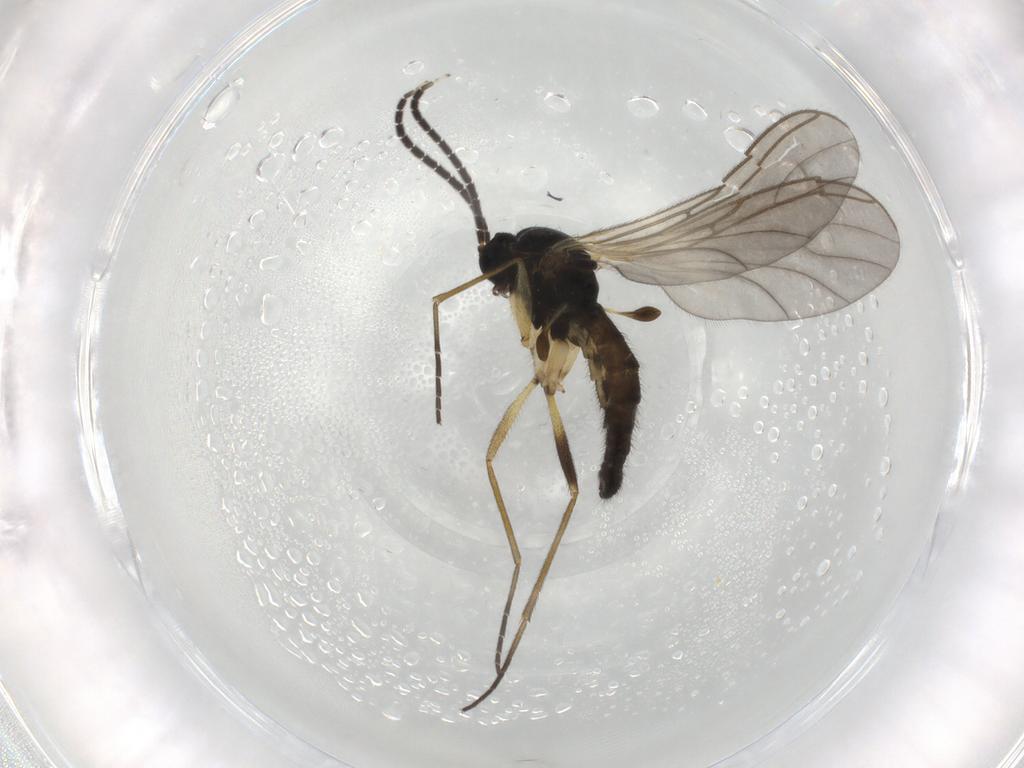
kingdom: Animalia
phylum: Arthropoda
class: Insecta
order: Diptera
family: Sciaridae
